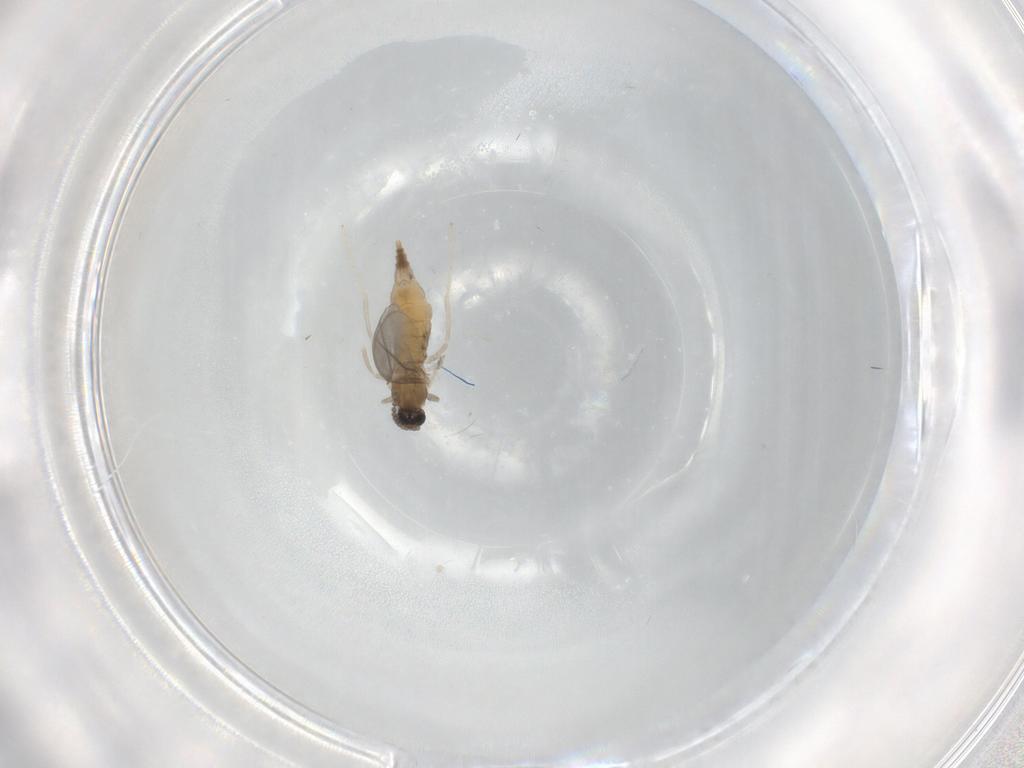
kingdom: Animalia
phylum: Arthropoda
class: Insecta
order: Diptera
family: Cecidomyiidae
